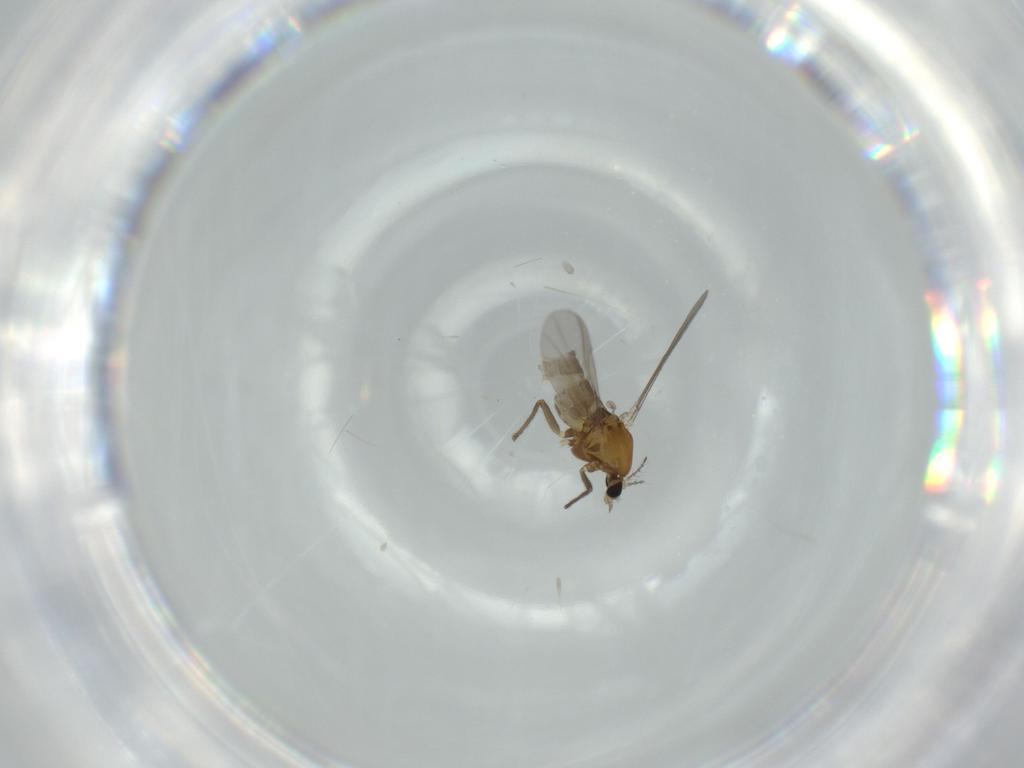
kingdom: Animalia
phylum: Arthropoda
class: Insecta
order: Diptera
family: Chironomidae
